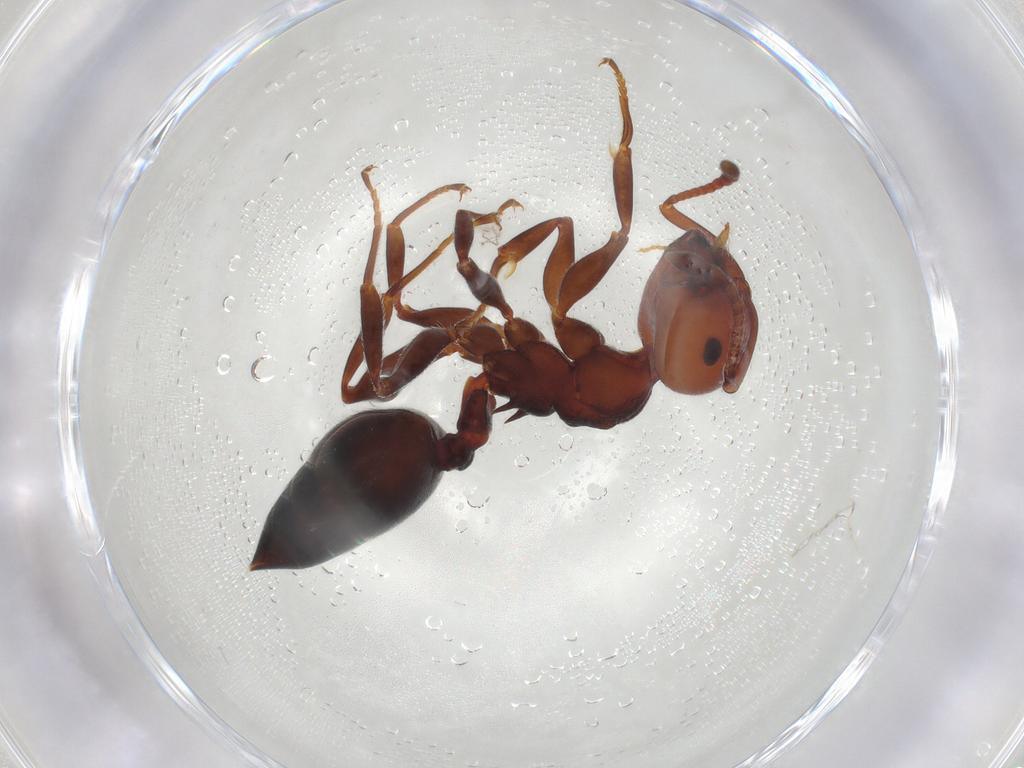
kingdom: Animalia
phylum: Arthropoda
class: Insecta
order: Hymenoptera
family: Formicidae
